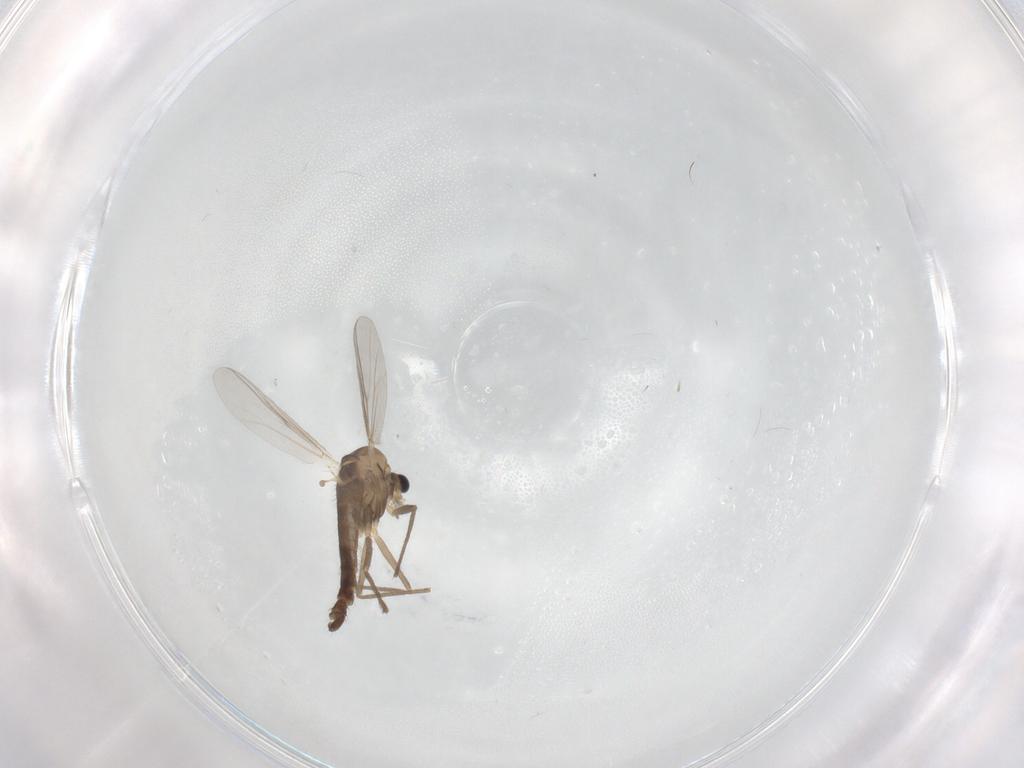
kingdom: Animalia
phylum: Arthropoda
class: Insecta
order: Diptera
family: Chironomidae
